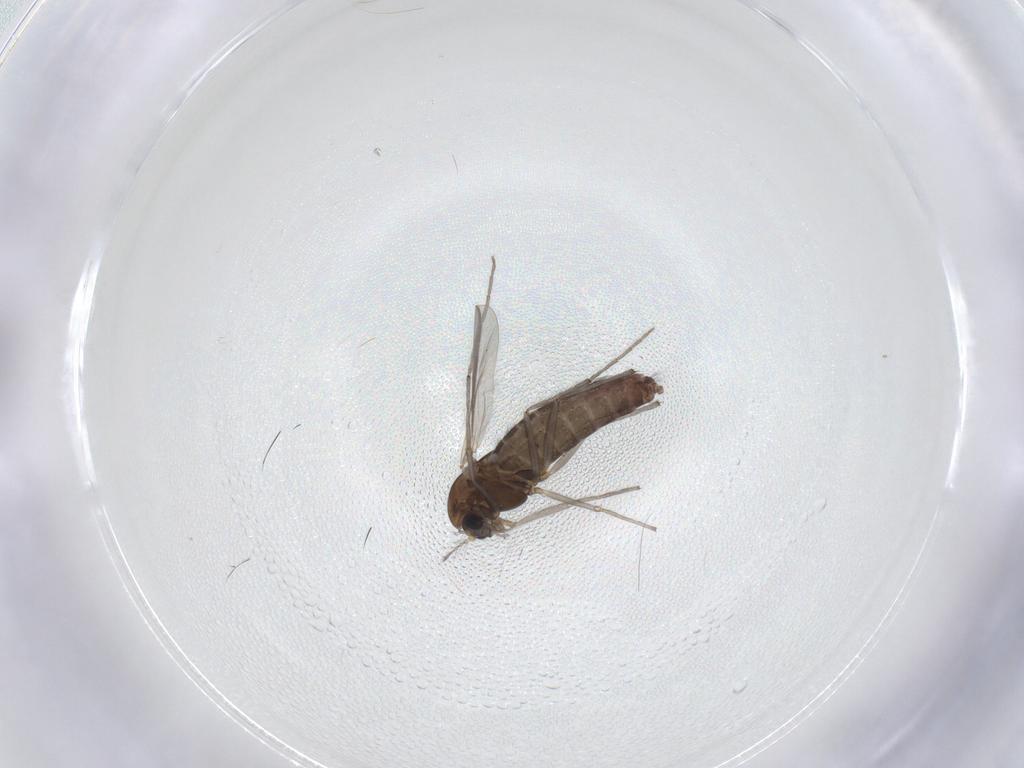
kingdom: Animalia
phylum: Arthropoda
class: Insecta
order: Diptera
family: Chironomidae
